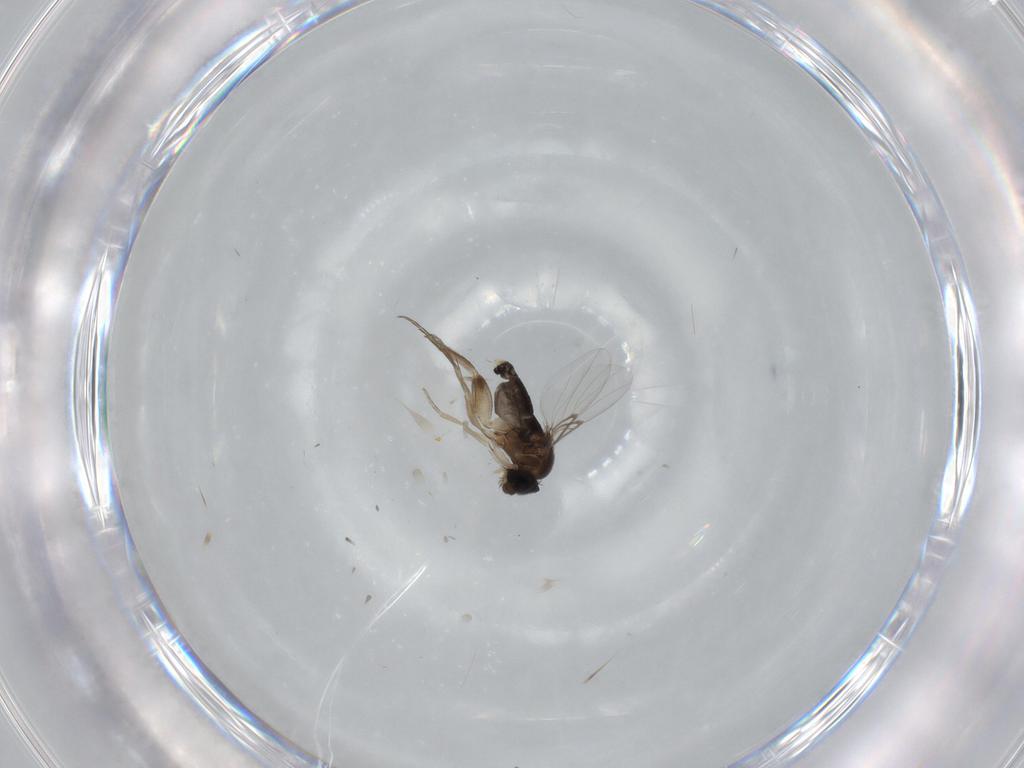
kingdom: Animalia
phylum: Arthropoda
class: Insecta
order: Diptera
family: Phoridae
